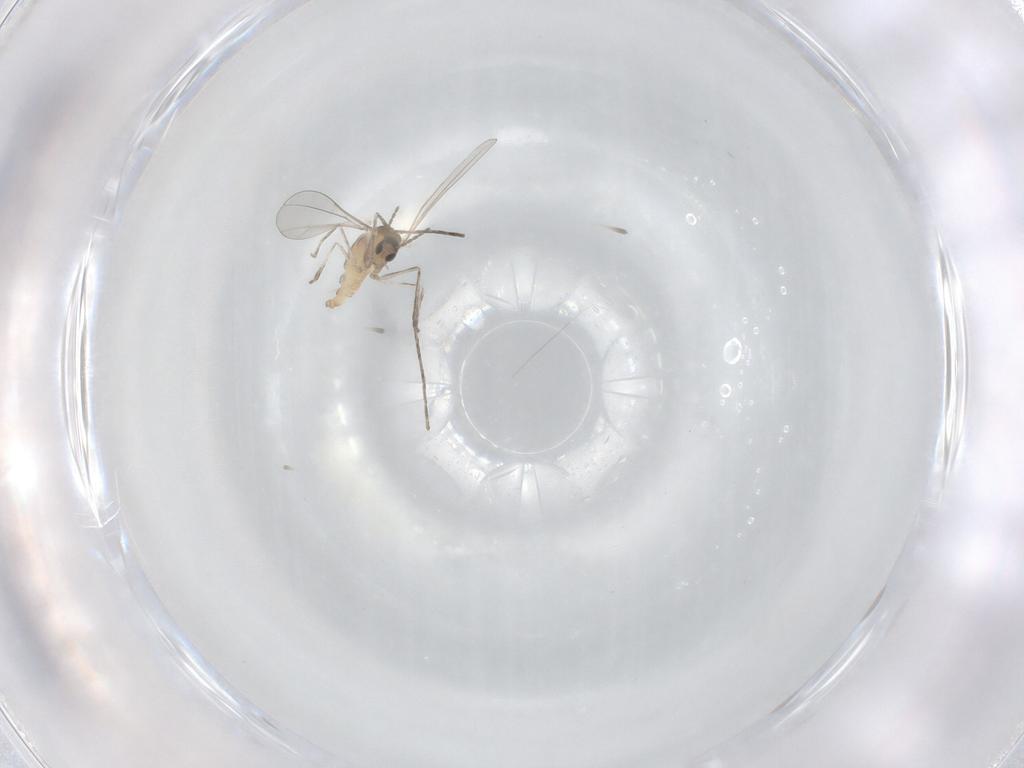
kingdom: Animalia
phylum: Arthropoda
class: Insecta
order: Diptera
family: Cecidomyiidae
